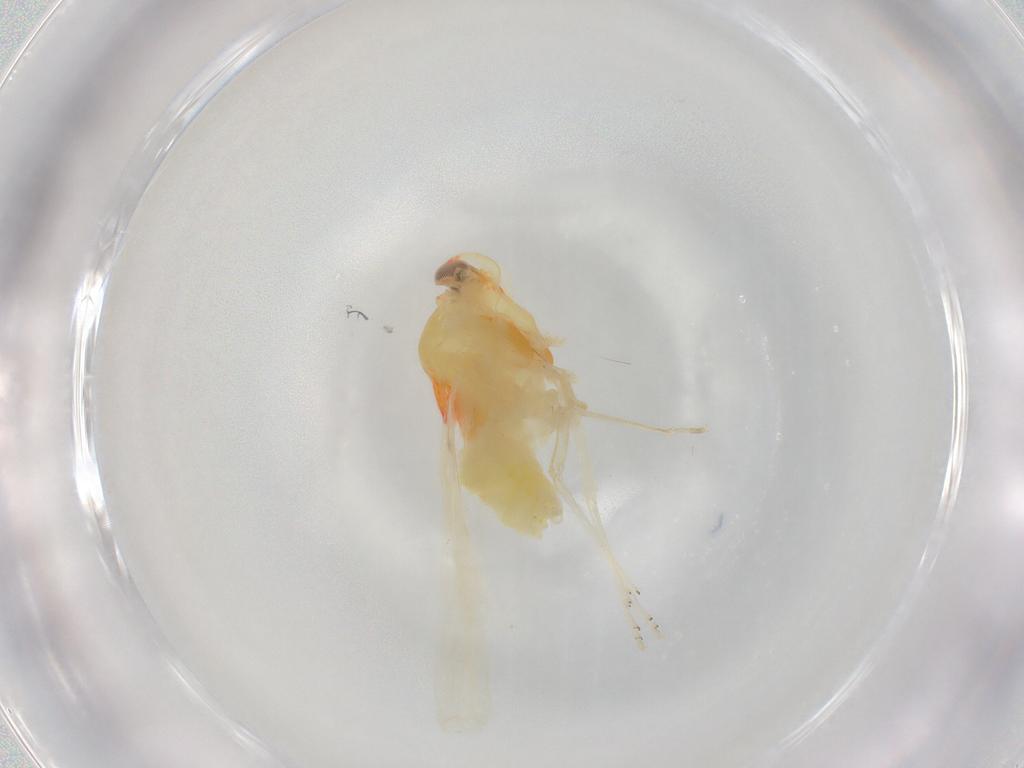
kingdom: Animalia
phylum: Arthropoda
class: Insecta
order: Hemiptera
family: Derbidae
